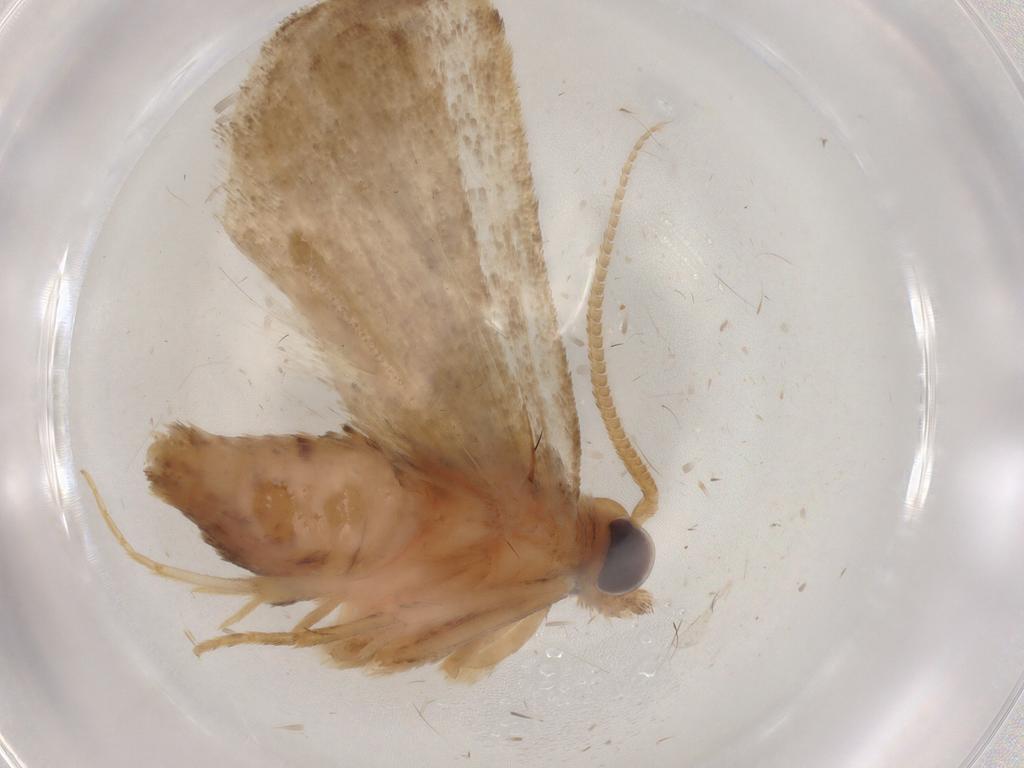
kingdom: Animalia
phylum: Arthropoda
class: Insecta
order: Lepidoptera
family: Pyralidae
